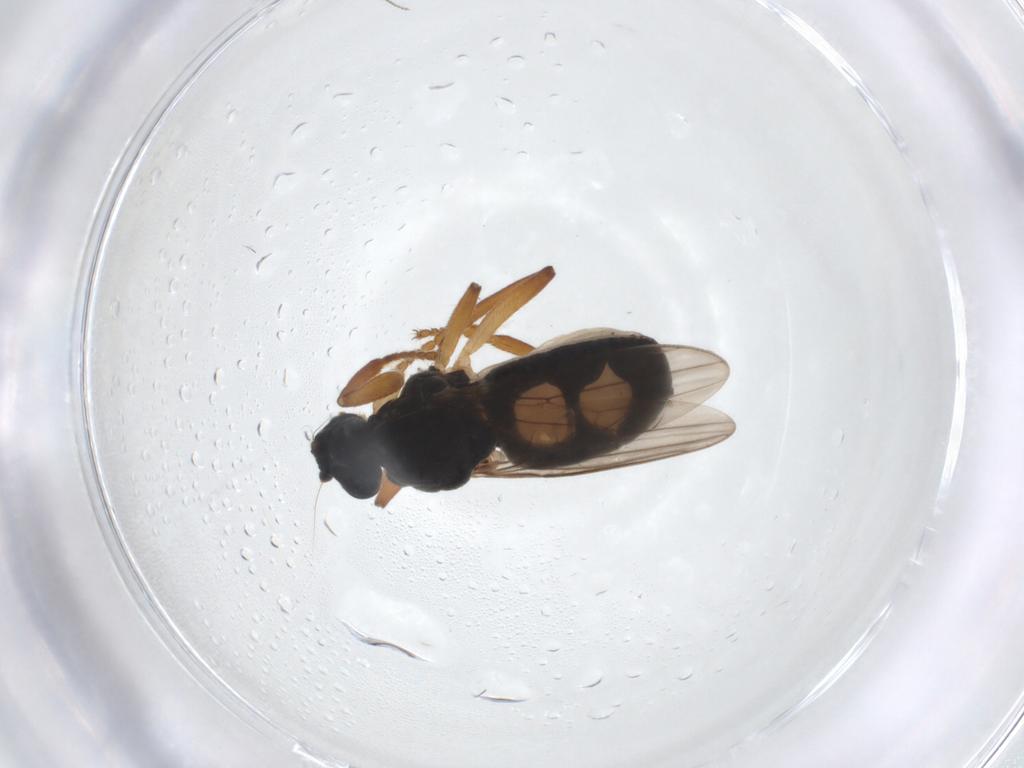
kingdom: Animalia
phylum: Arthropoda
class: Insecta
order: Diptera
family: Sphaeroceridae
